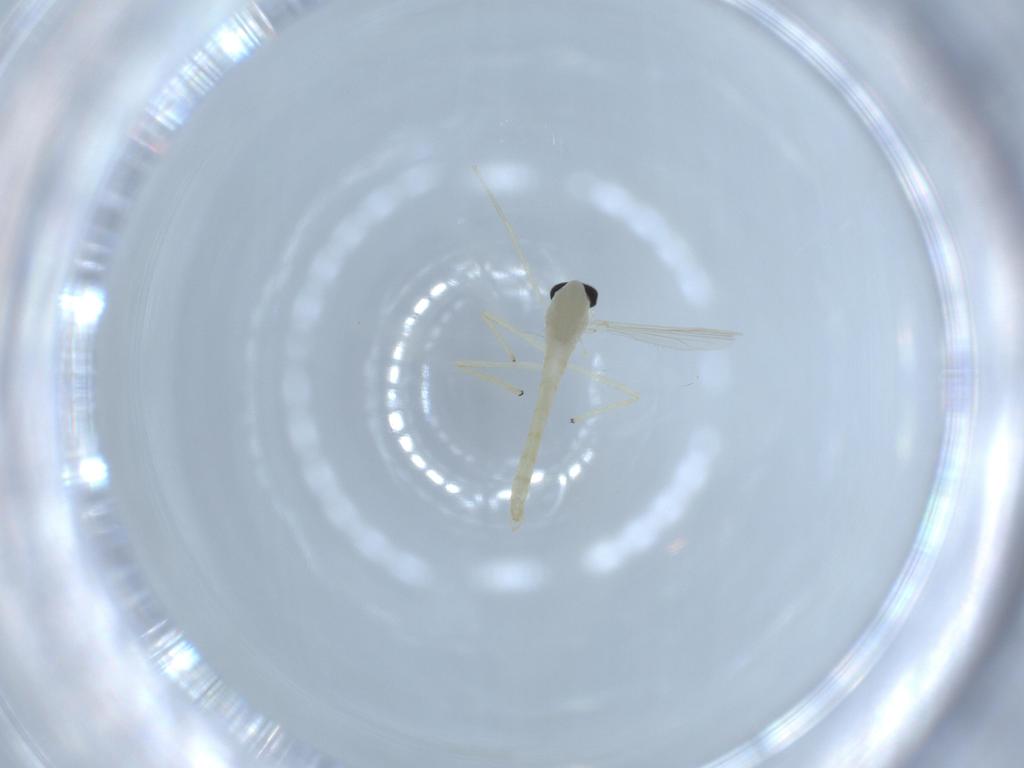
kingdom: Animalia
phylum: Arthropoda
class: Insecta
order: Diptera
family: Chironomidae
